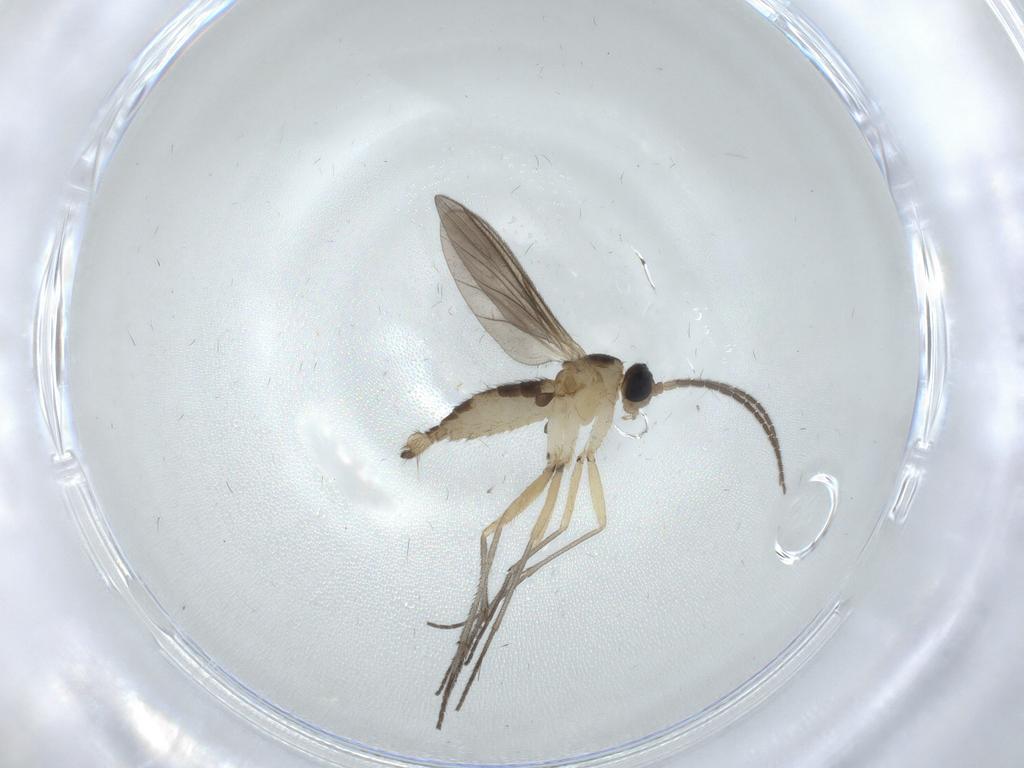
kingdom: Animalia
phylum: Arthropoda
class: Insecta
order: Diptera
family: Sciaridae
